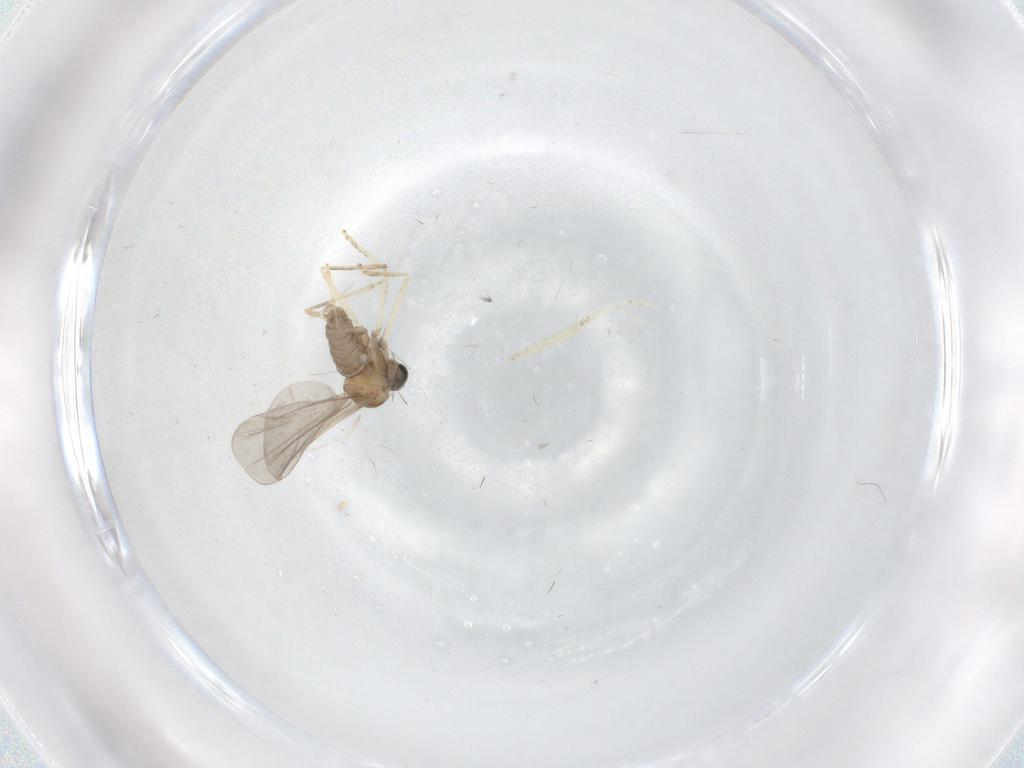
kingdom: Animalia
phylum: Arthropoda
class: Insecta
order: Diptera
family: Cecidomyiidae
